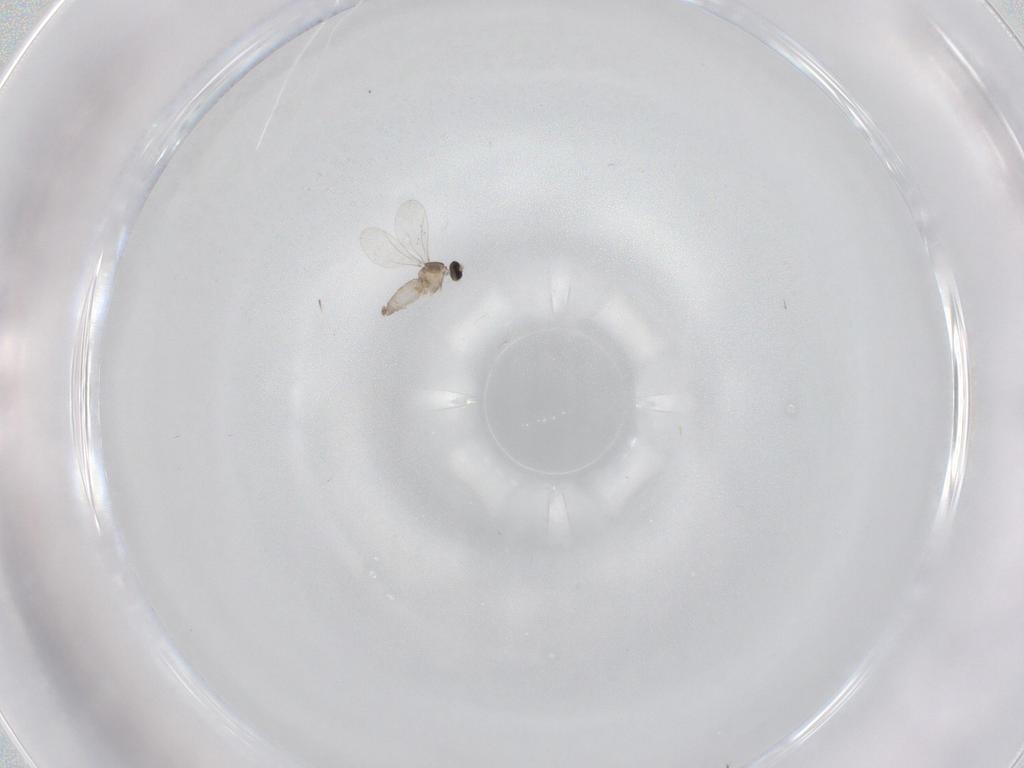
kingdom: Animalia
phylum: Arthropoda
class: Insecta
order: Diptera
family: Cecidomyiidae
